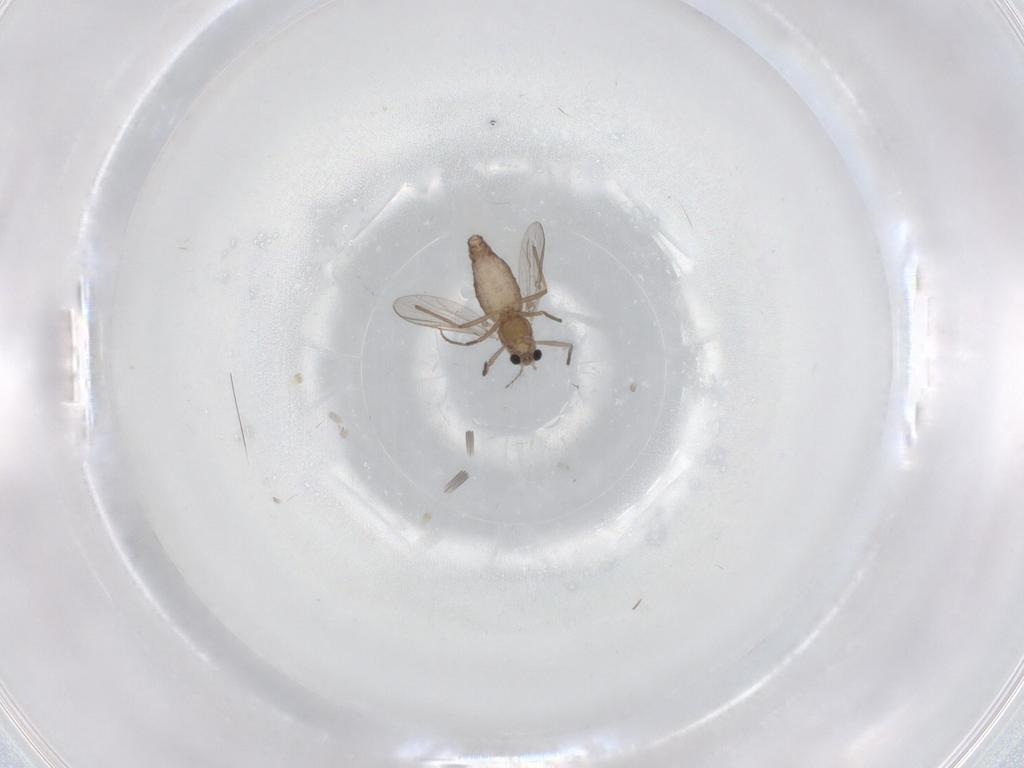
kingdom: Animalia
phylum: Arthropoda
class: Insecta
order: Diptera
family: Chironomidae
